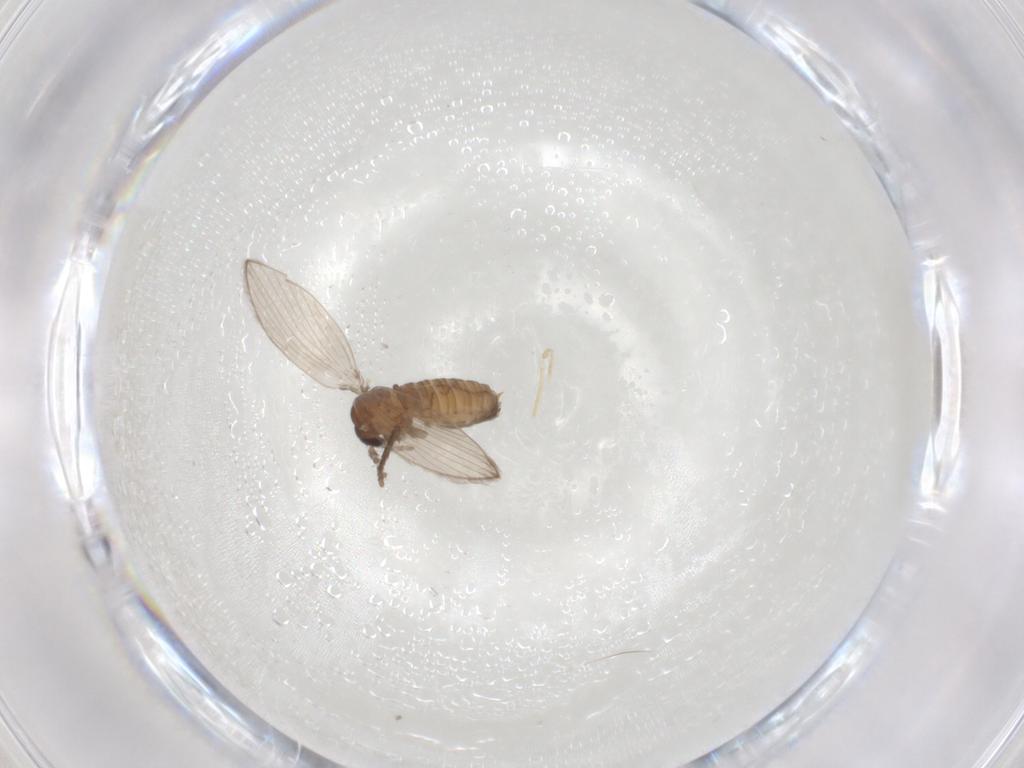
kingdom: Animalia
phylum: Arthropoda
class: Insecta
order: Diptera
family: Psychodidae
